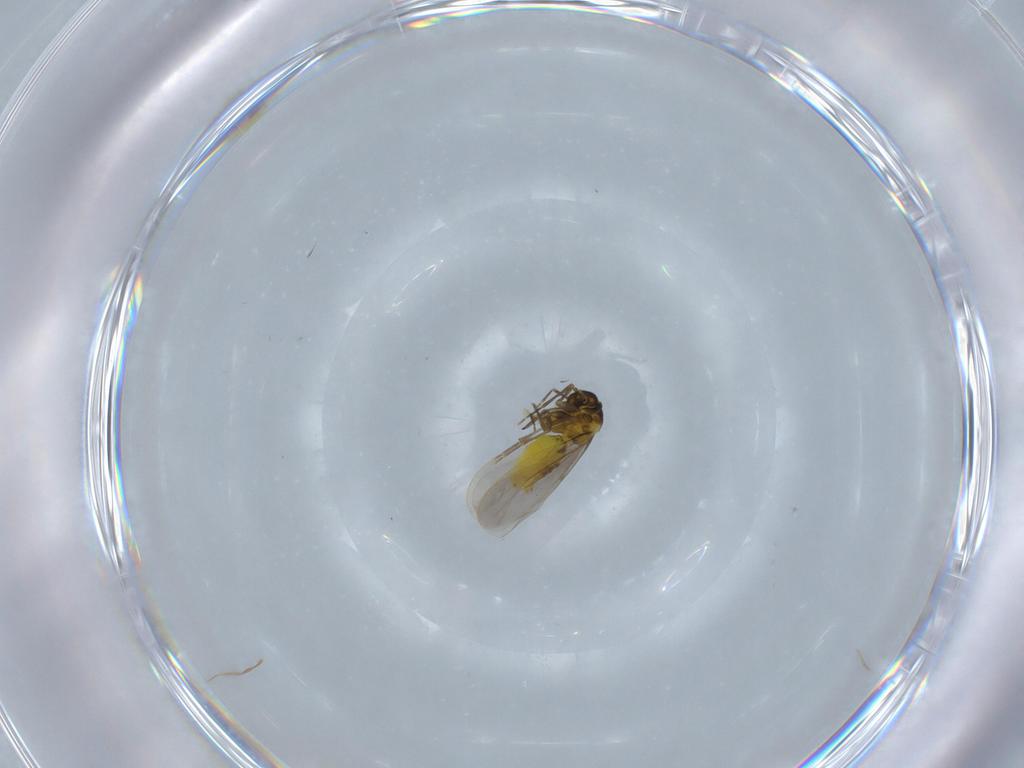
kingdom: Animalia
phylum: Arthropoda
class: Insecta
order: Hemiptera
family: Aleyrodidae
